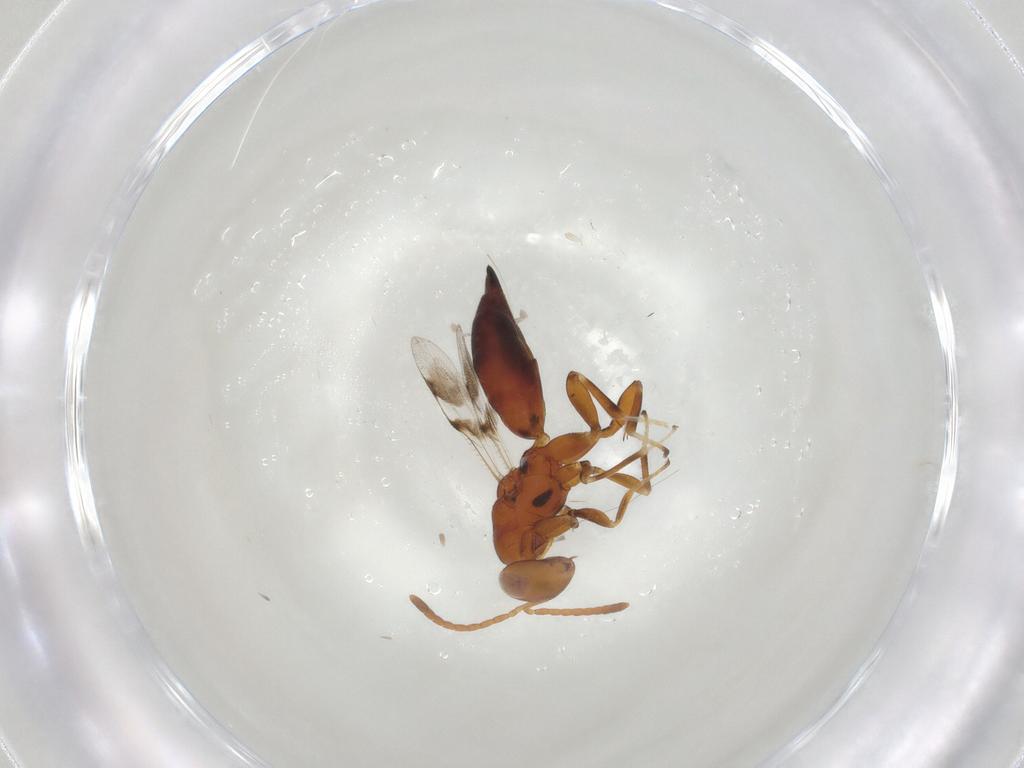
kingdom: Animalia
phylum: Arthropoda
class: Insecta
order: Hymenoptera
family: Trichogrammatidae
